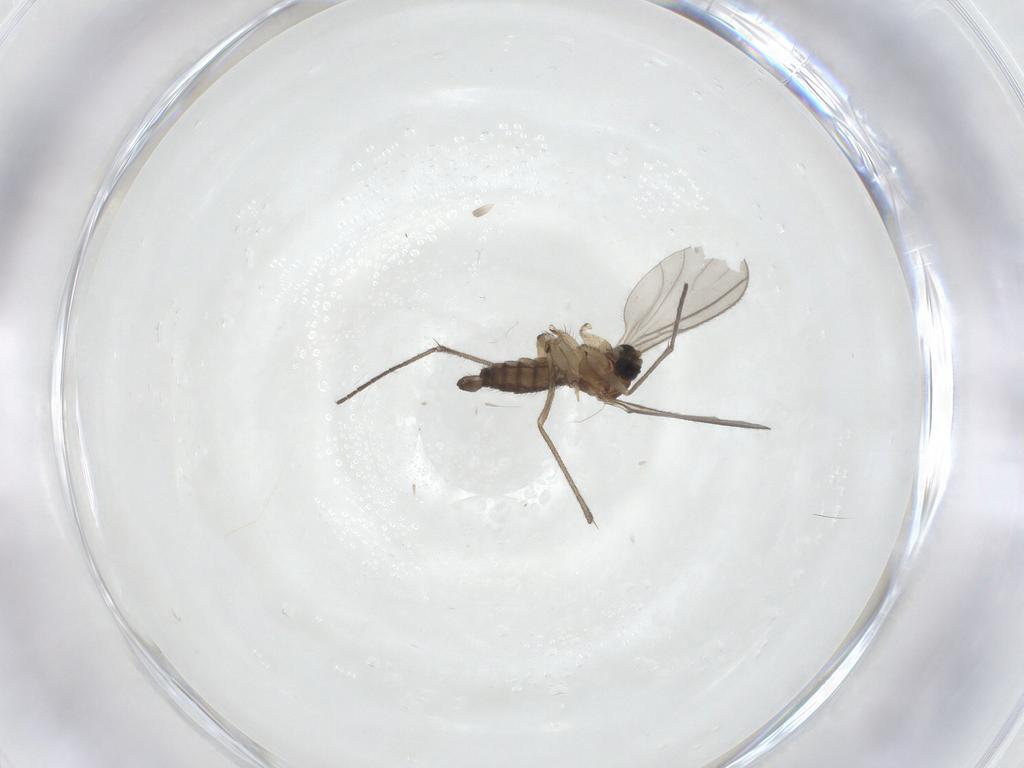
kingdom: Animalia
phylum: Arthropoda
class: Insecta
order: Diptera
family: Sciaridae
